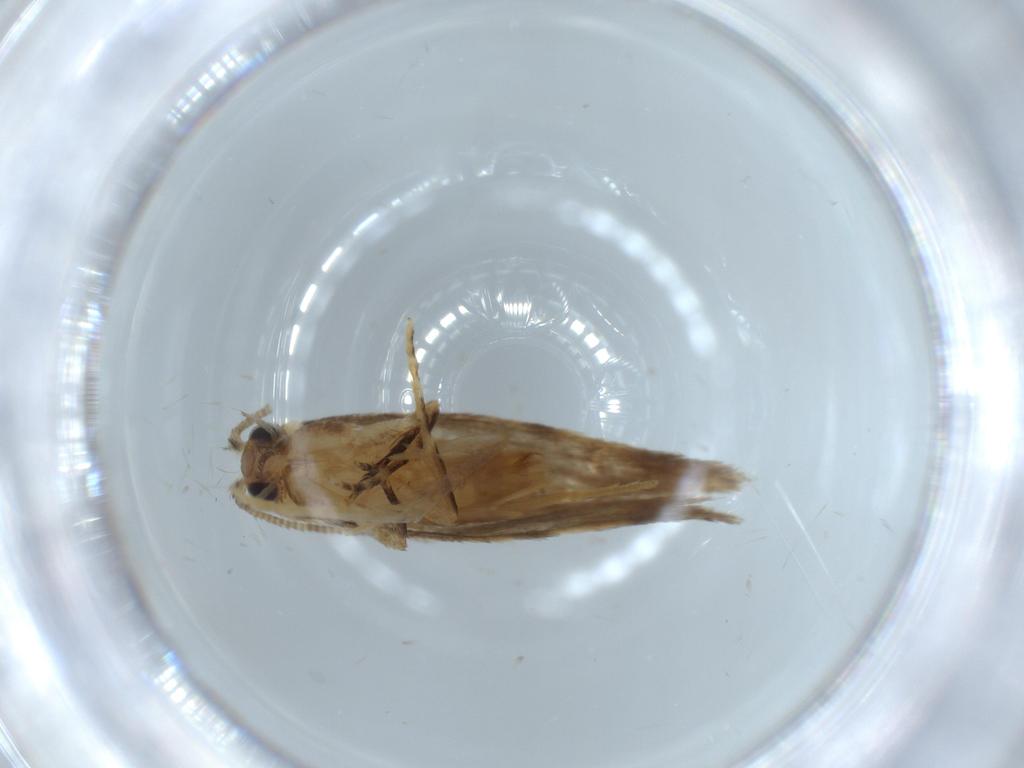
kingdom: Animalia
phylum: Arthropoda
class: Insecta
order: Lepidoptera
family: Tineidae
